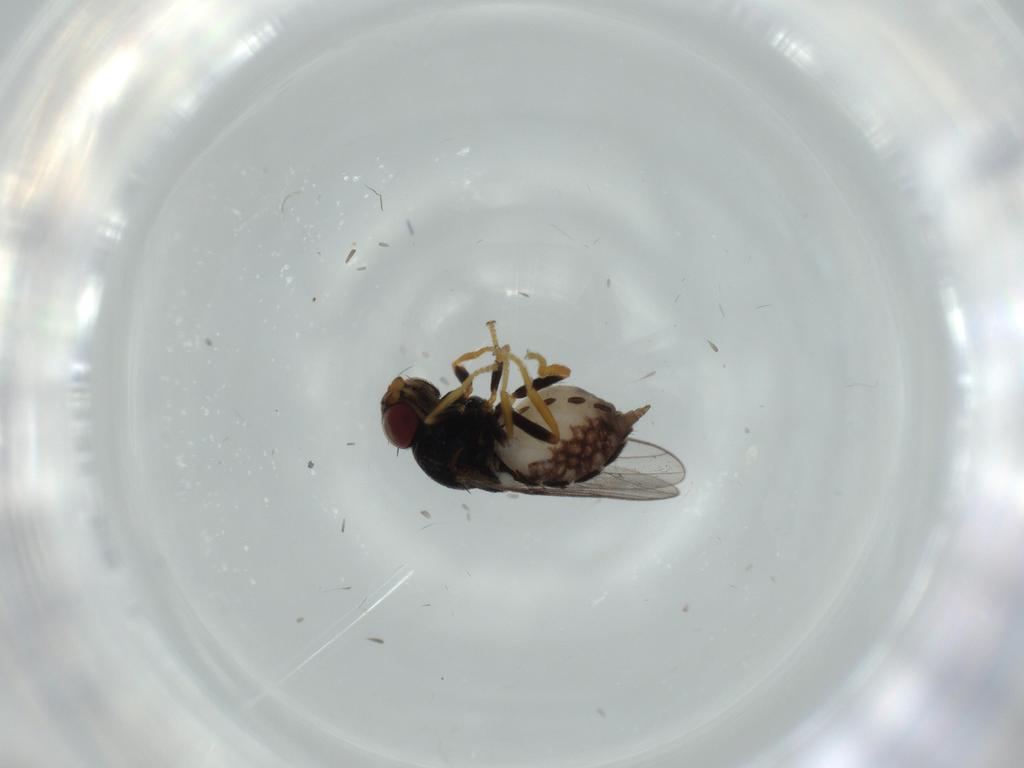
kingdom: Animalia
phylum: Arthropoda
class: Insecta
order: Diptera
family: Chloropidae
